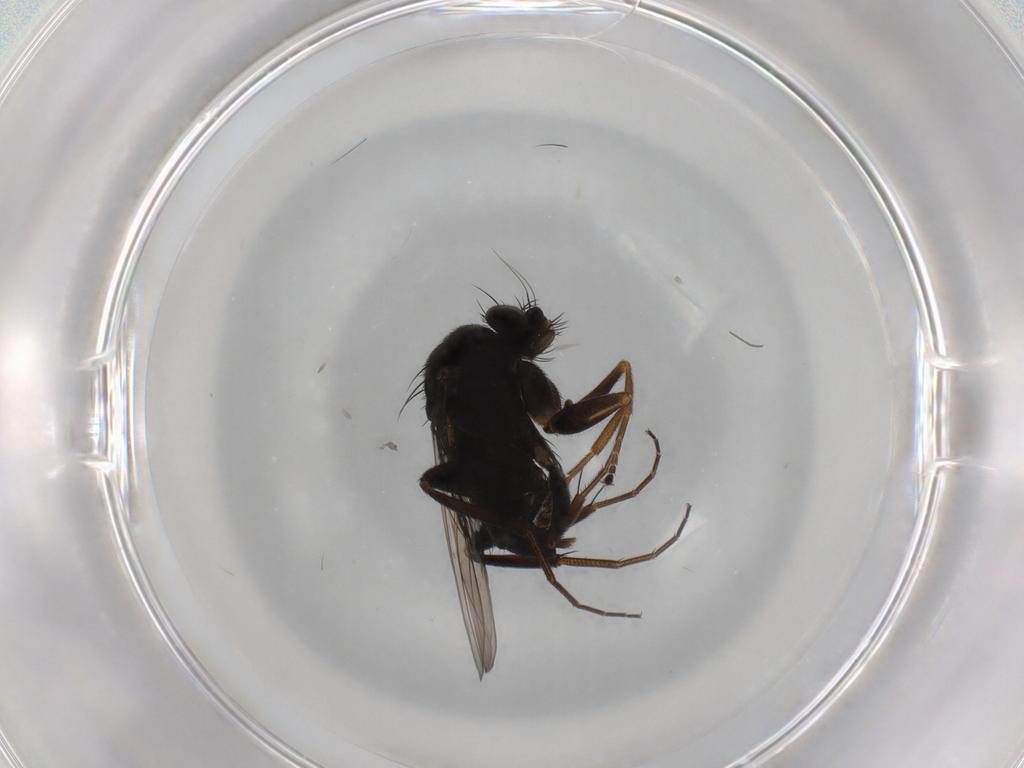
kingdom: Animalia
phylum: Arthropoda
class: Insecta
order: Diptera
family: Phoridae
